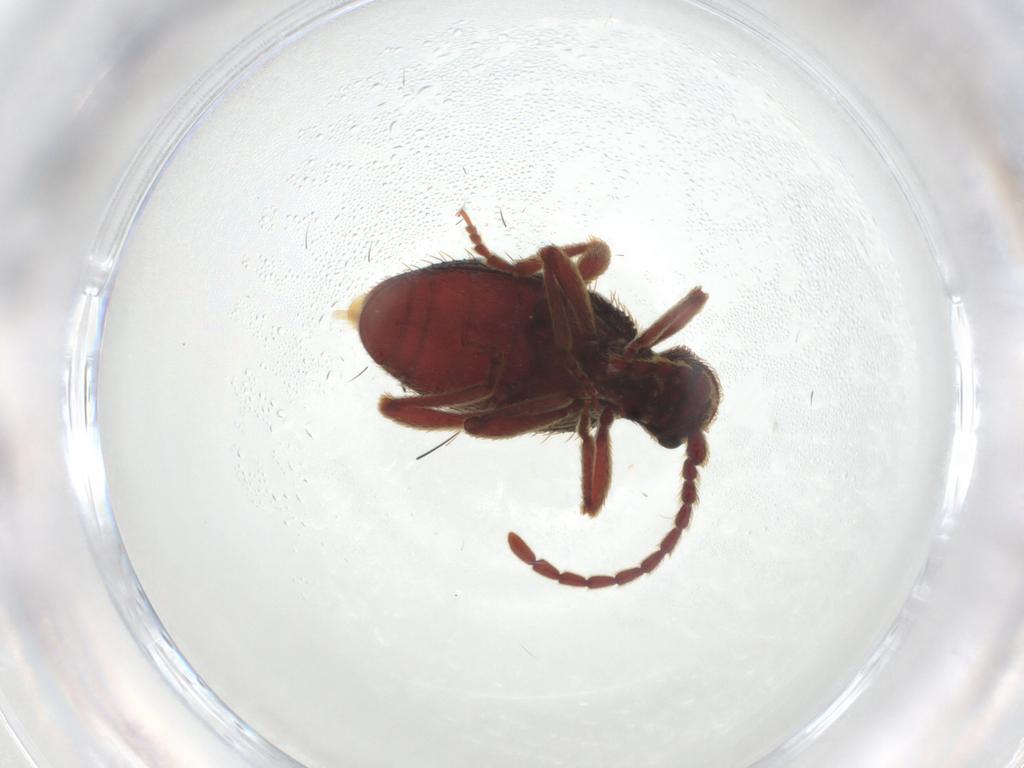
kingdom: Animalia
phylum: Arthropoda
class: Insecta
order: Coleoptera
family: Ptinidae
